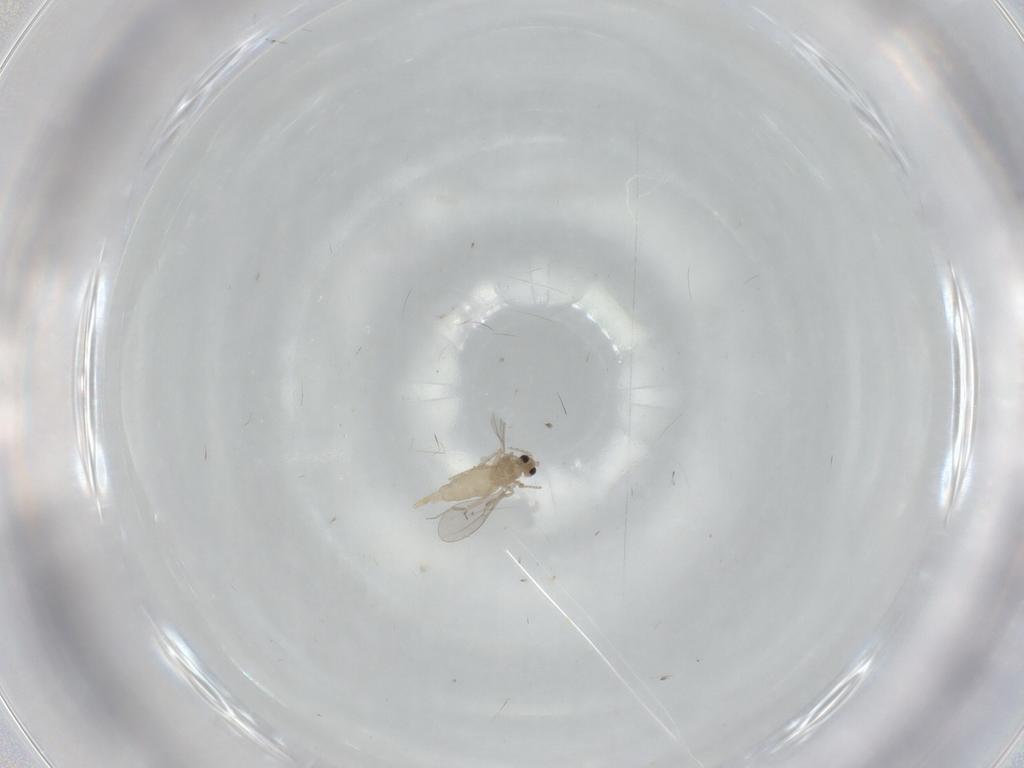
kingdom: Animalia
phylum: Arthropoda
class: Insecta
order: Diptera
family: Cecidomyiidae
